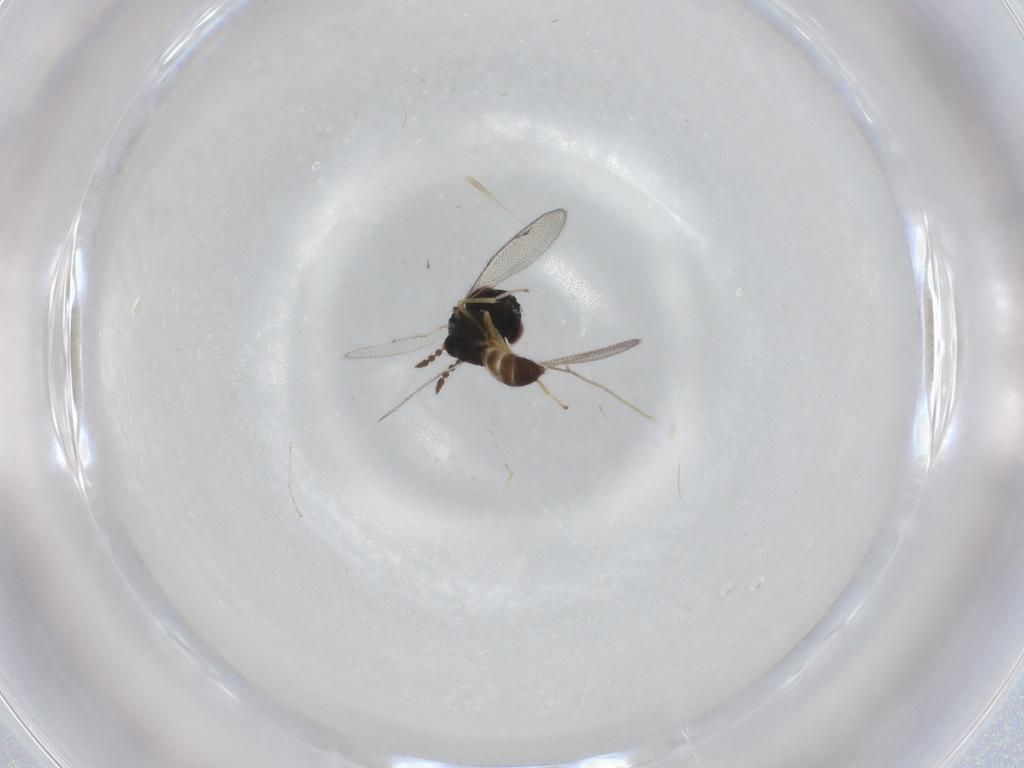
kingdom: Animalia
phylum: Arthropoda
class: Insecta
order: Hymenoptera
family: Pteromalidae
